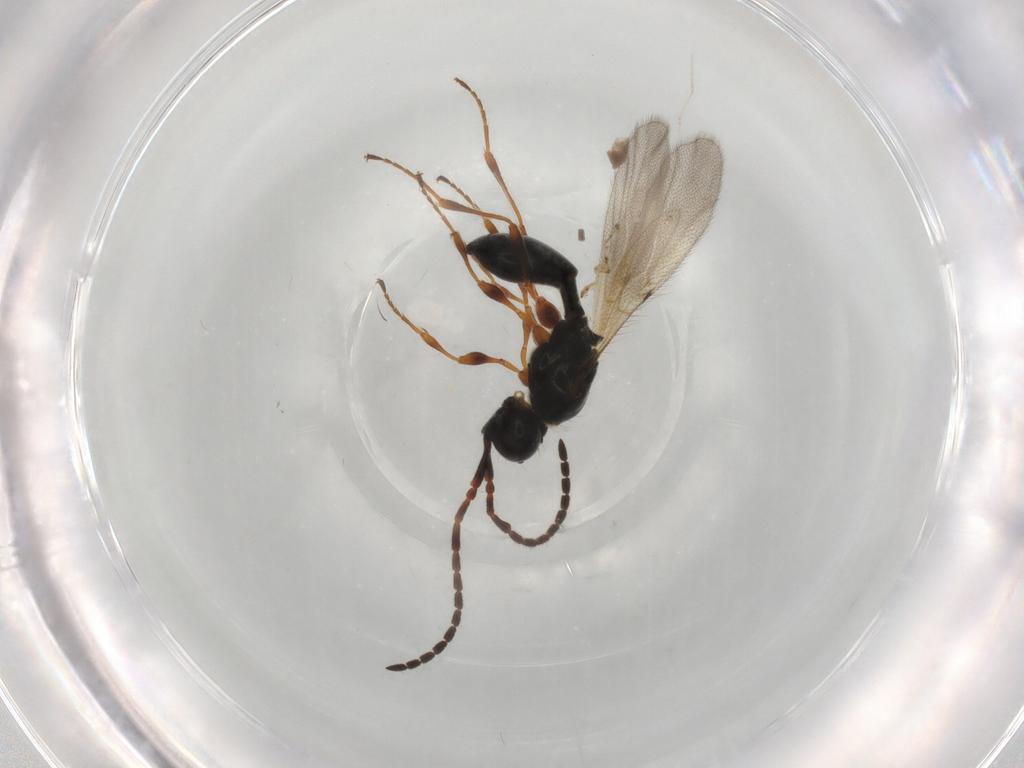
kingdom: Animalia
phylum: Arthropoda
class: Insecta
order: Hymenoptera
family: Diapriidae
